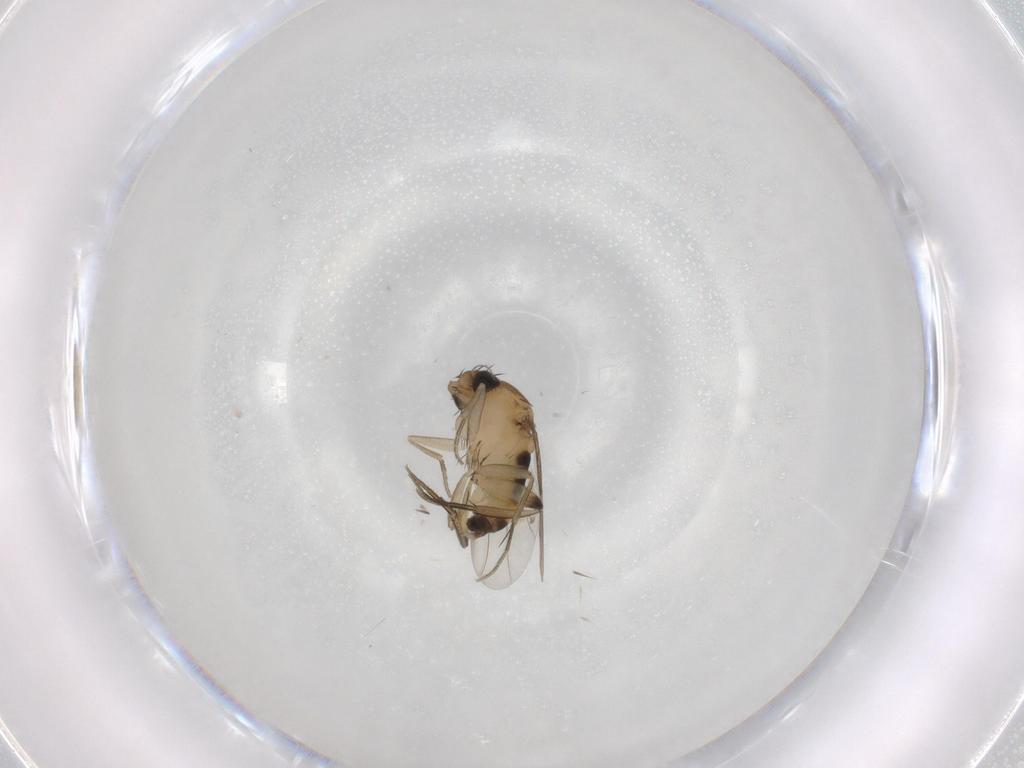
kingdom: Animalia
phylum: Arthropoda
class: Insecta
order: Diptera
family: Phoridae
